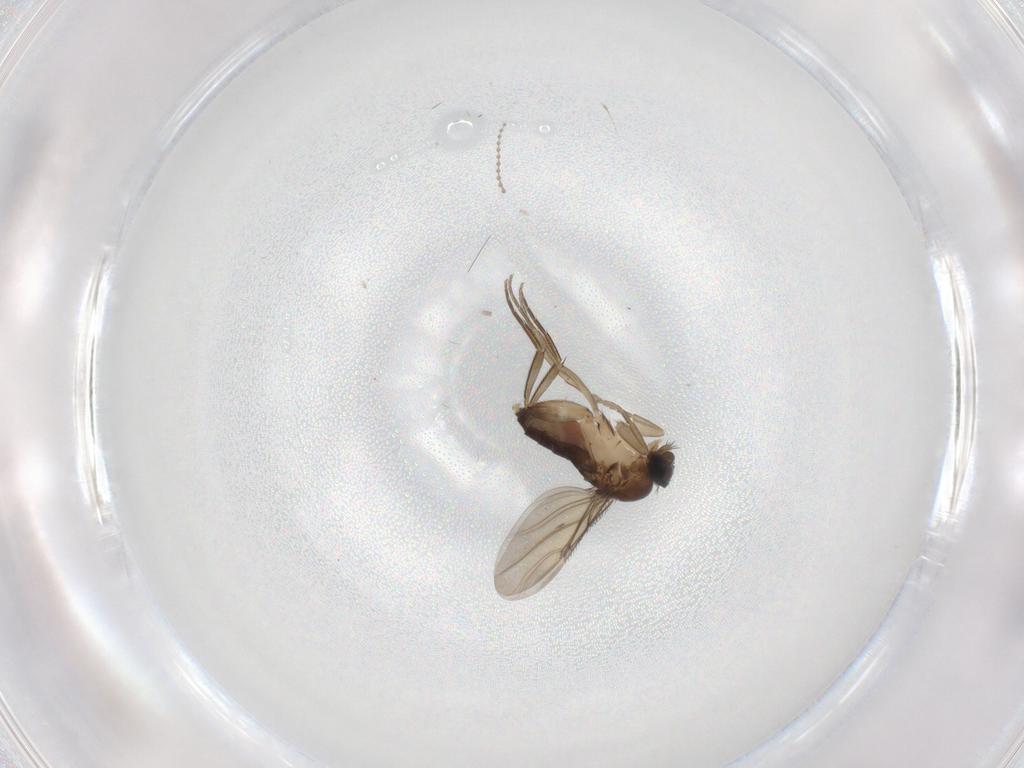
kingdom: Animalia
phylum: Arthropoda
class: Insecta
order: Diptera
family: Phoridae
